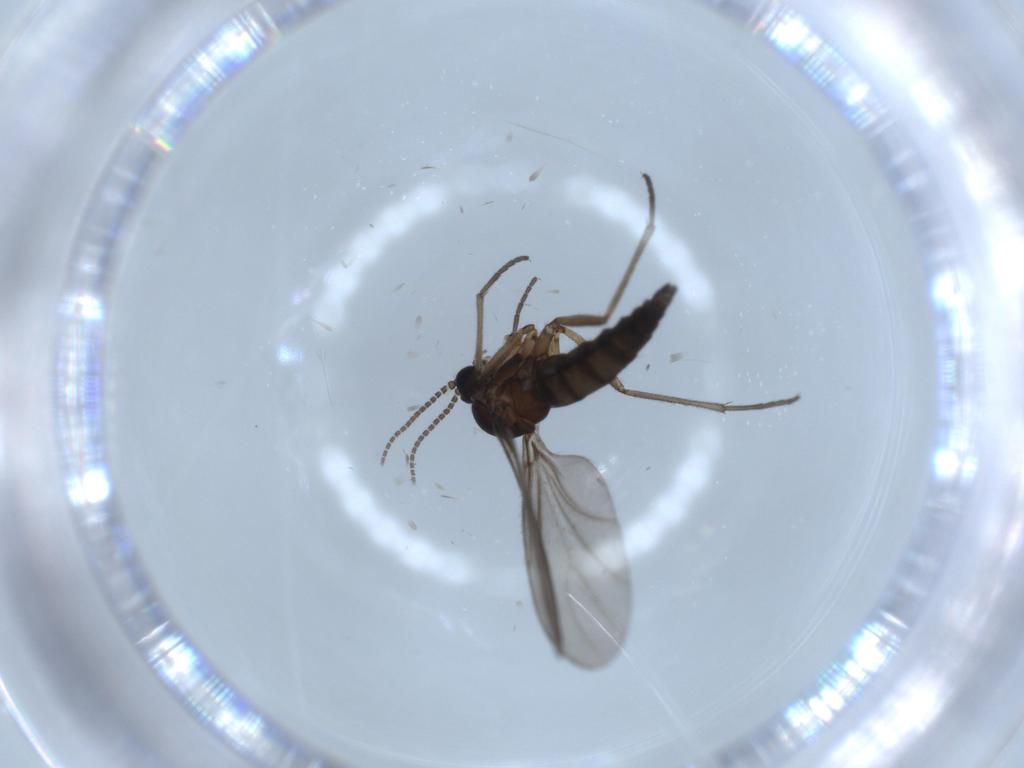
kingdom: Animalia
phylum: Arthropoda
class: Insecta
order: Diptera
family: Sciaridae
